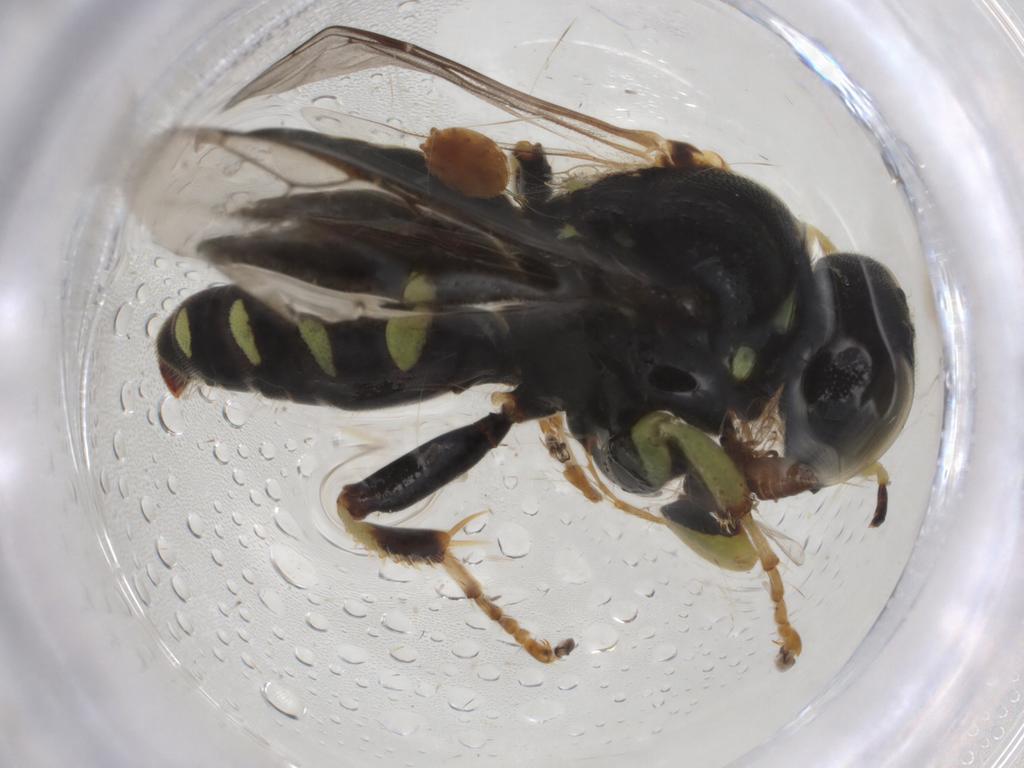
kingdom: Animalia
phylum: Arthropoda
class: Insecta
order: Hymenoptera
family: Crabronidae
